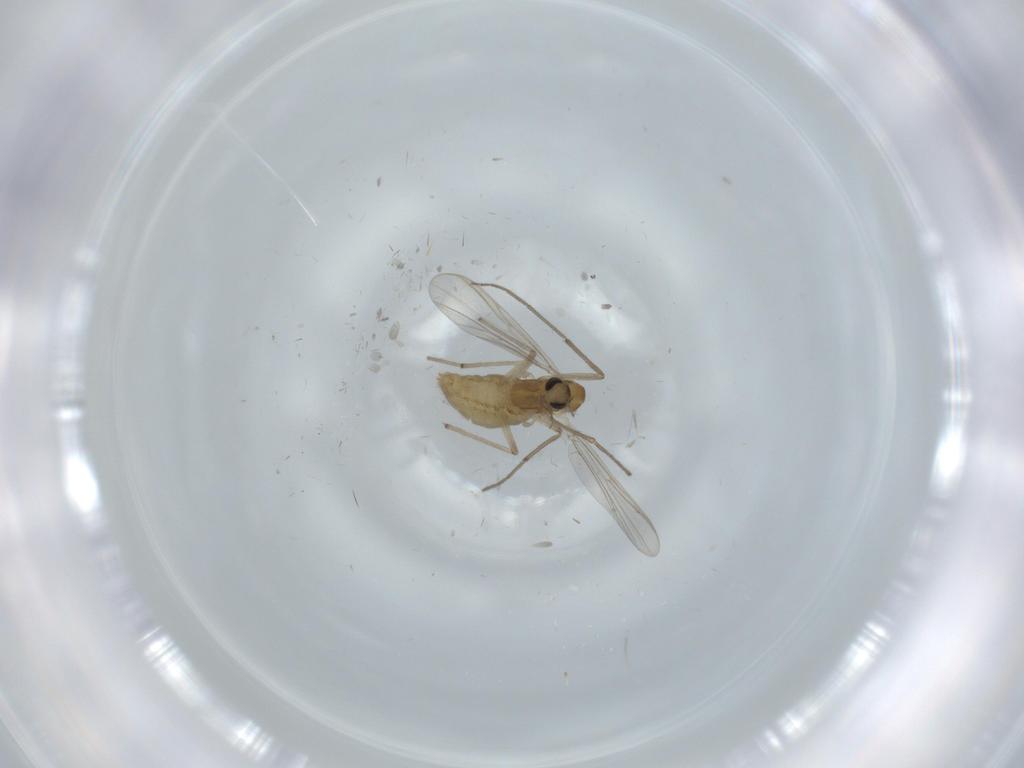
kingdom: Animalia
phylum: Arthropoda
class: Insecta
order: Diptera
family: Chironomidae
